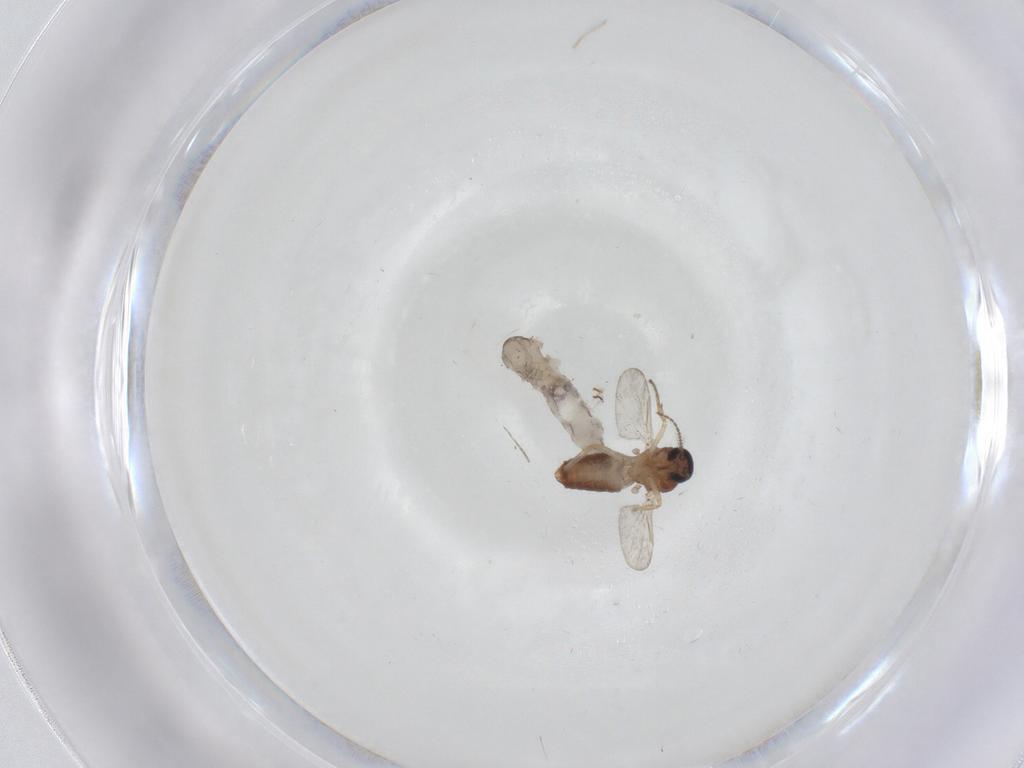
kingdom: Animalia
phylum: Arthropoda
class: Insecta
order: Diptera
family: Ceratopogonidae
